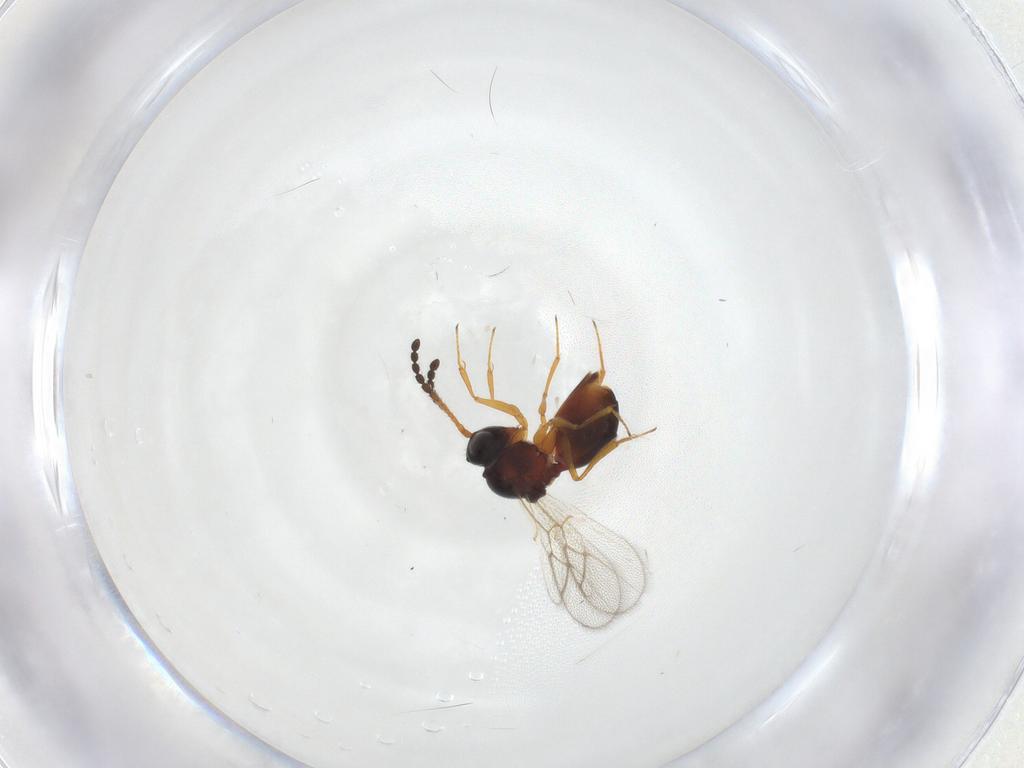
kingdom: Animalia
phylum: Arthropoda
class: Insecta
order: Hymenoptera
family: Figitidae
